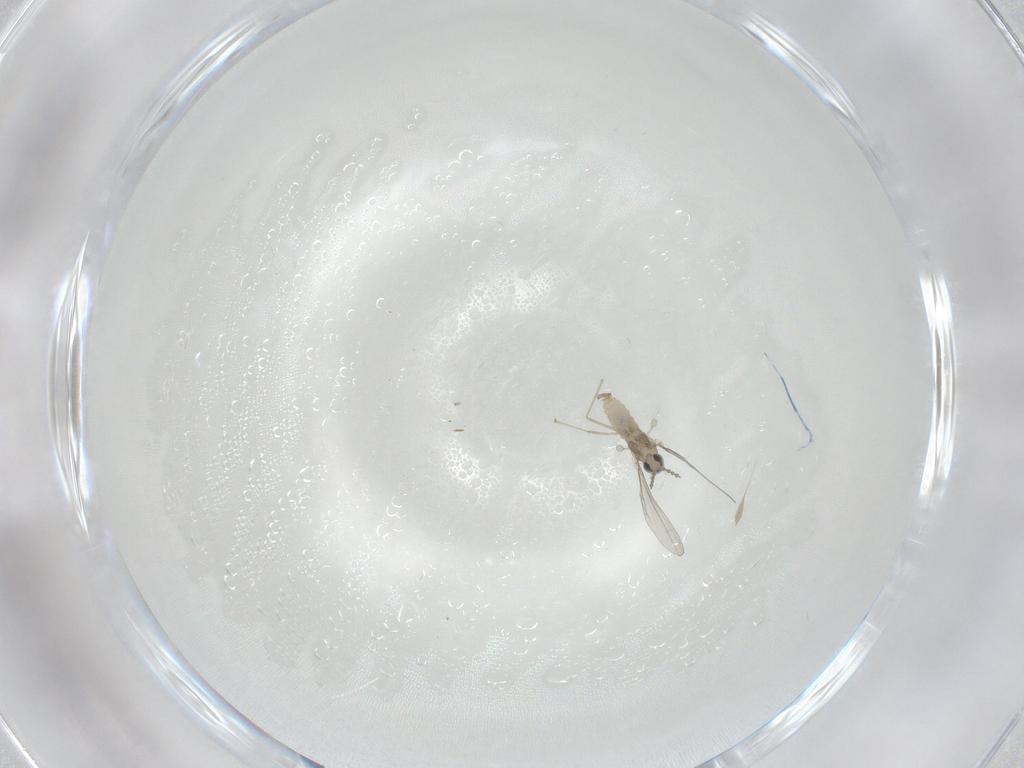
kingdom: Animalia
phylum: Arthropoda
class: Insecta
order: Diptera
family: Cecidomyiidae
